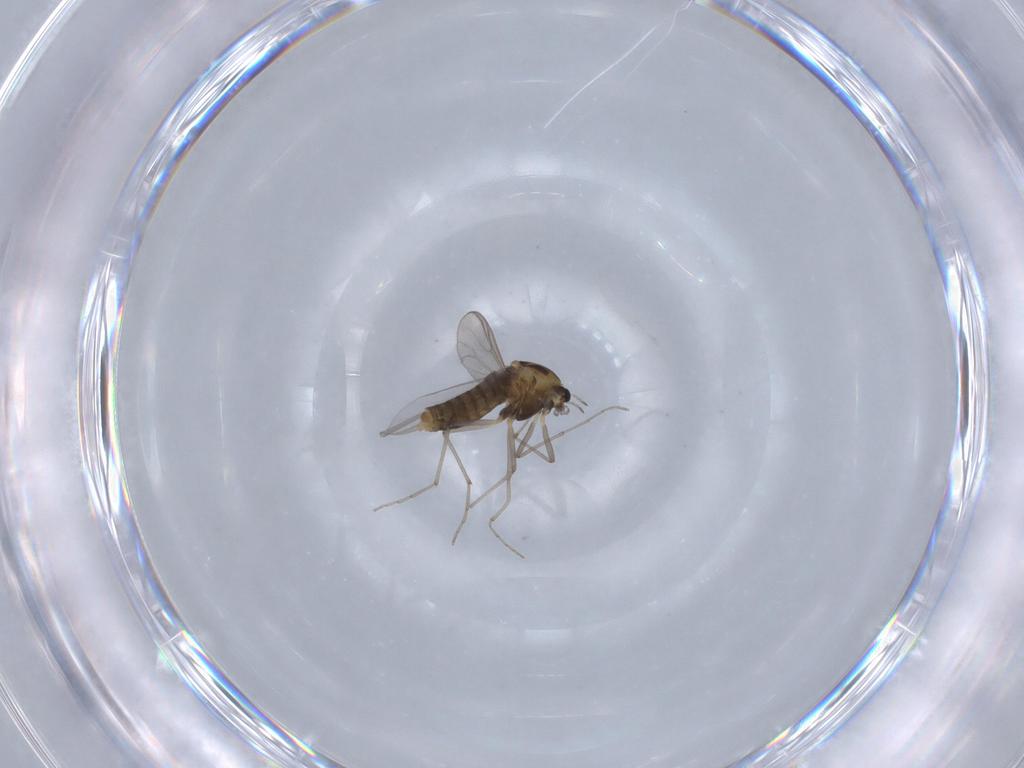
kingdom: Animalia
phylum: Arthropoda
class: Insecta
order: Diptera
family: Chironomidae
